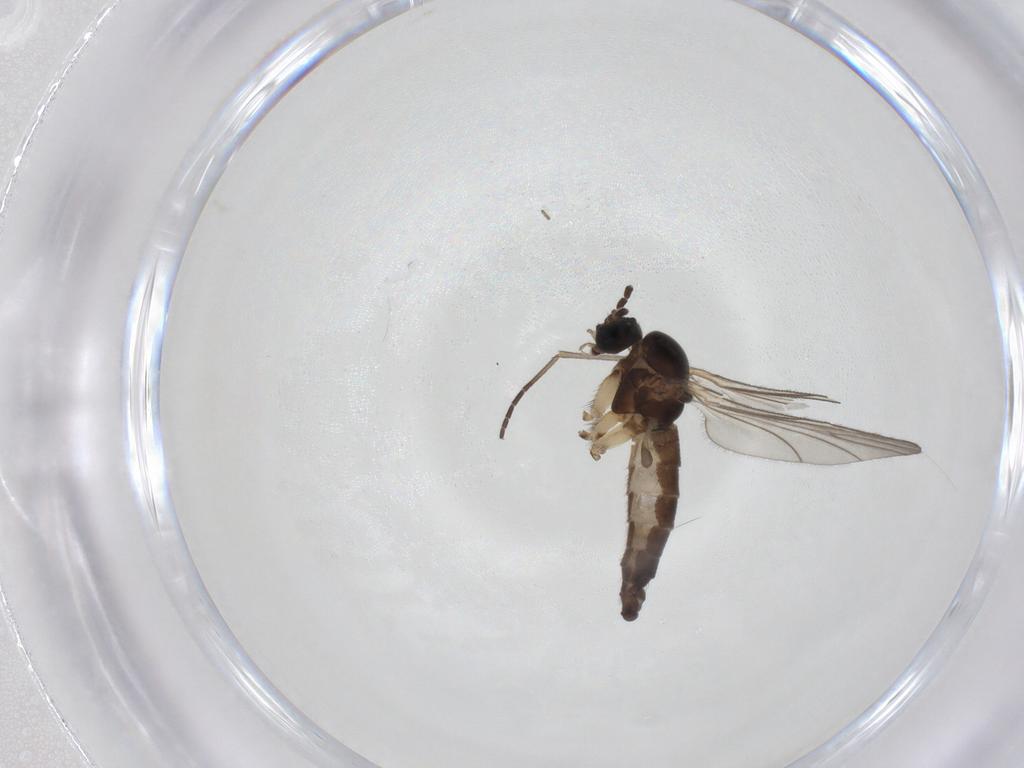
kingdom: Animalia
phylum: Arthropoda
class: Insecta
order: Diptera
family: Sciaridae
